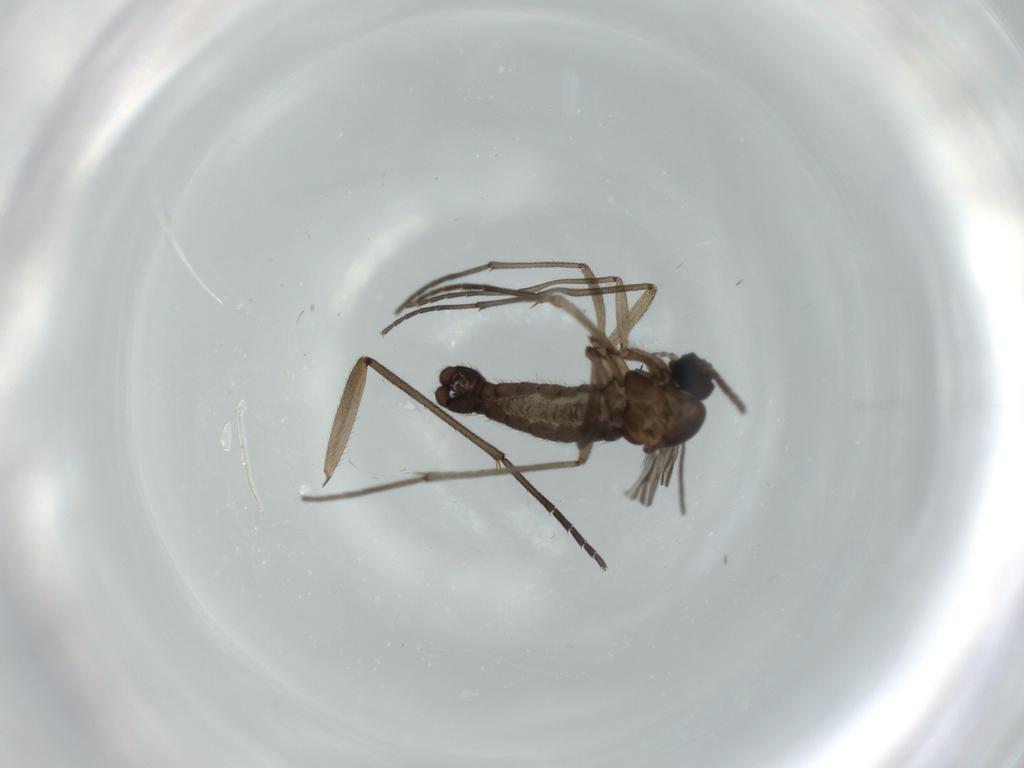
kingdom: Animalia
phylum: Arthropoda
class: Insecta
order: Diptera
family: Sciaridae
